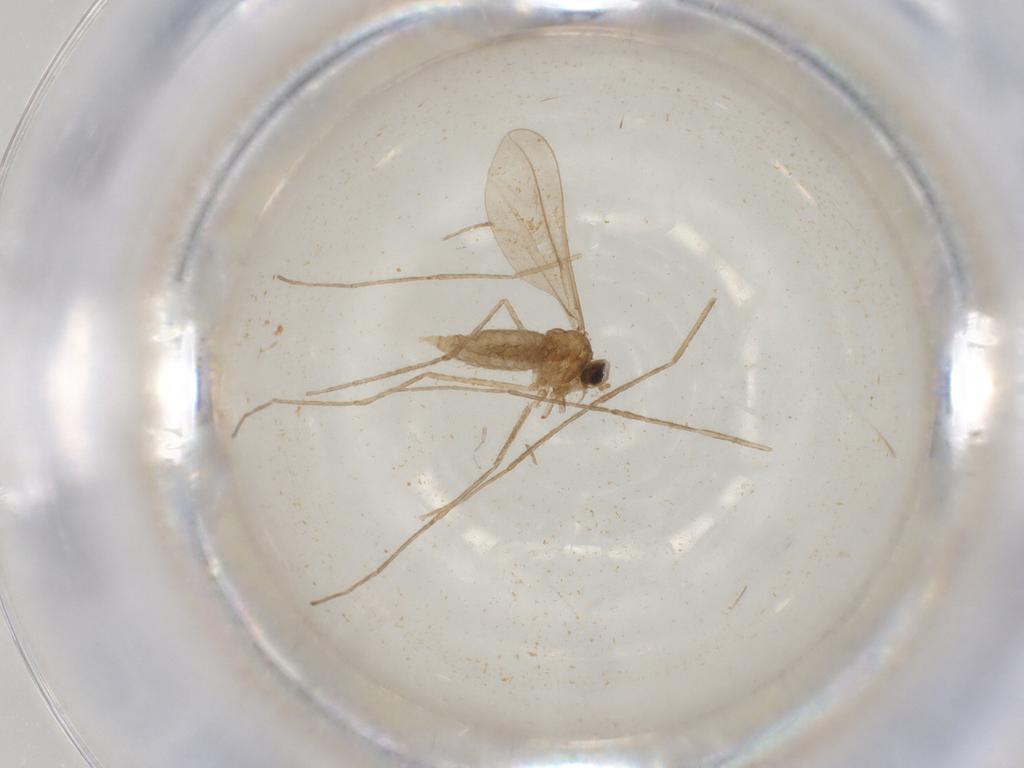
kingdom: Animalia
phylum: Arthropoda
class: Insecta
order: Diptera
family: Cecidomyiidae
